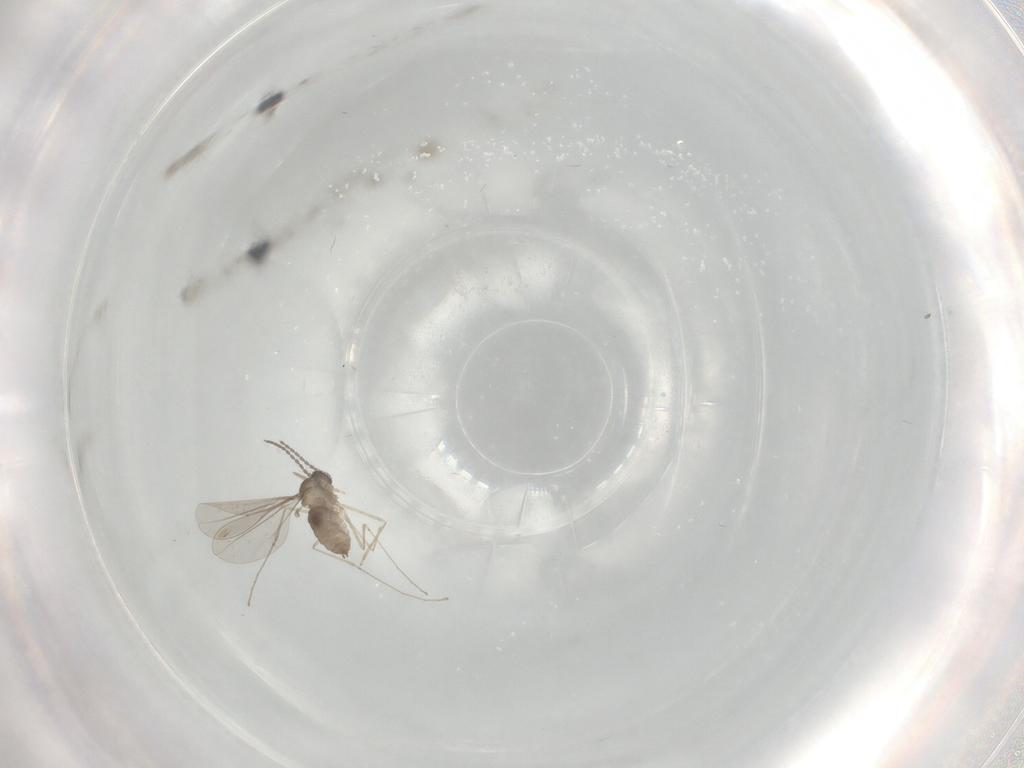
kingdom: Animalia
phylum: Arthropoda
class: Insecta
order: Diptera
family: Cecidomyiidae
